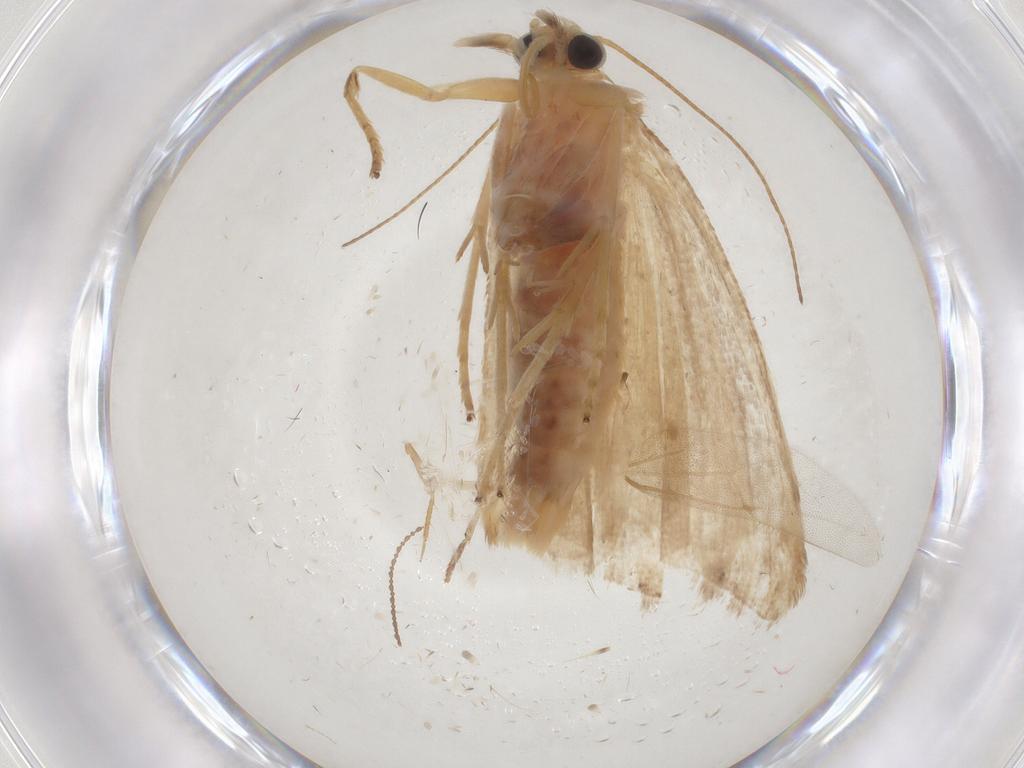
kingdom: Animalia
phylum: Arthropoda
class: Insecta
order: Lepidoptera
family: Pyralidae
